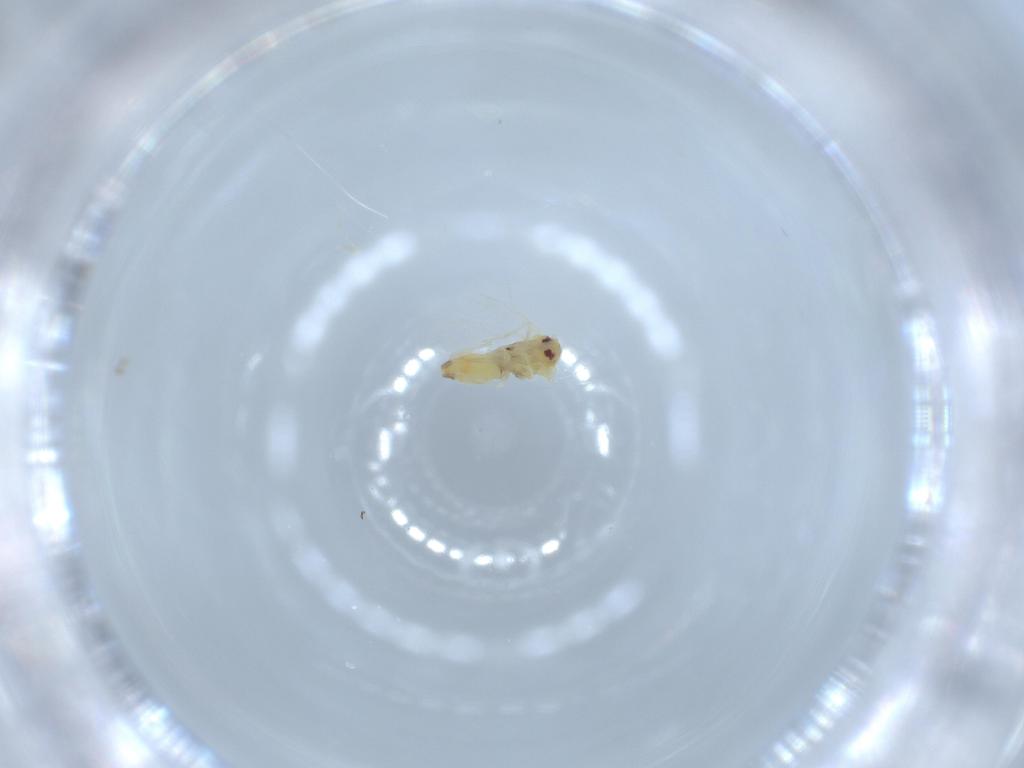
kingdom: Animalia
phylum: Arthropoda
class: Insecta
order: Hemiptera
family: Aleyrodidae
